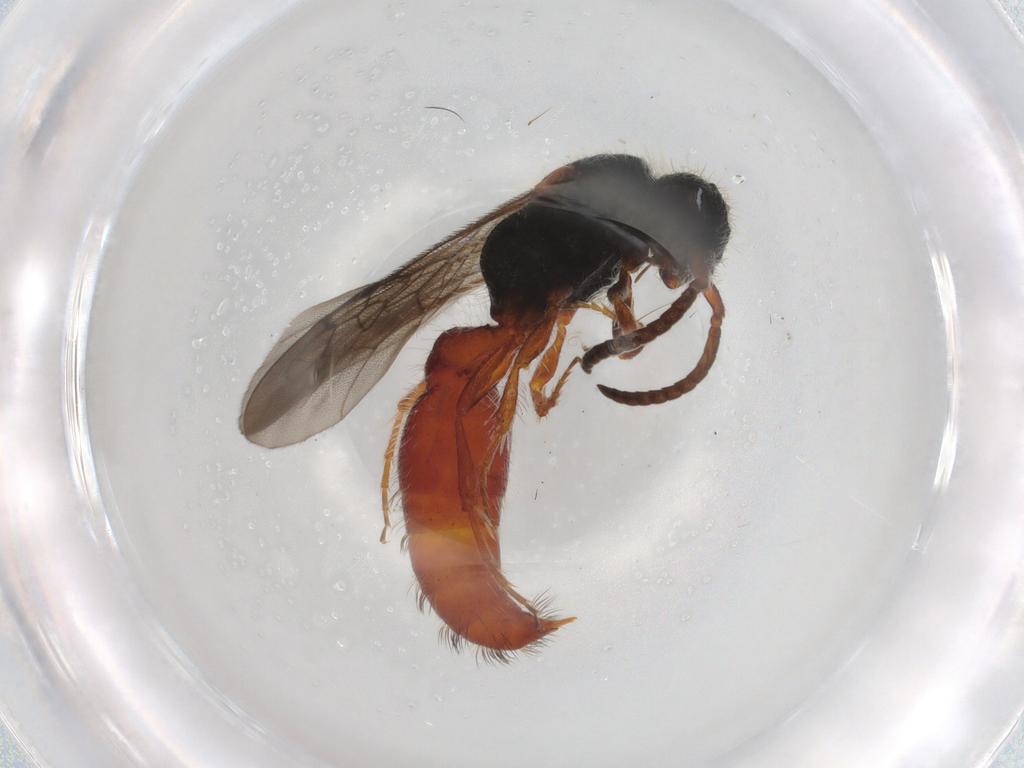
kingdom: Animalia
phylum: Arthropoda
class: Insecta
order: Hymenoptera
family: Mutillidae
